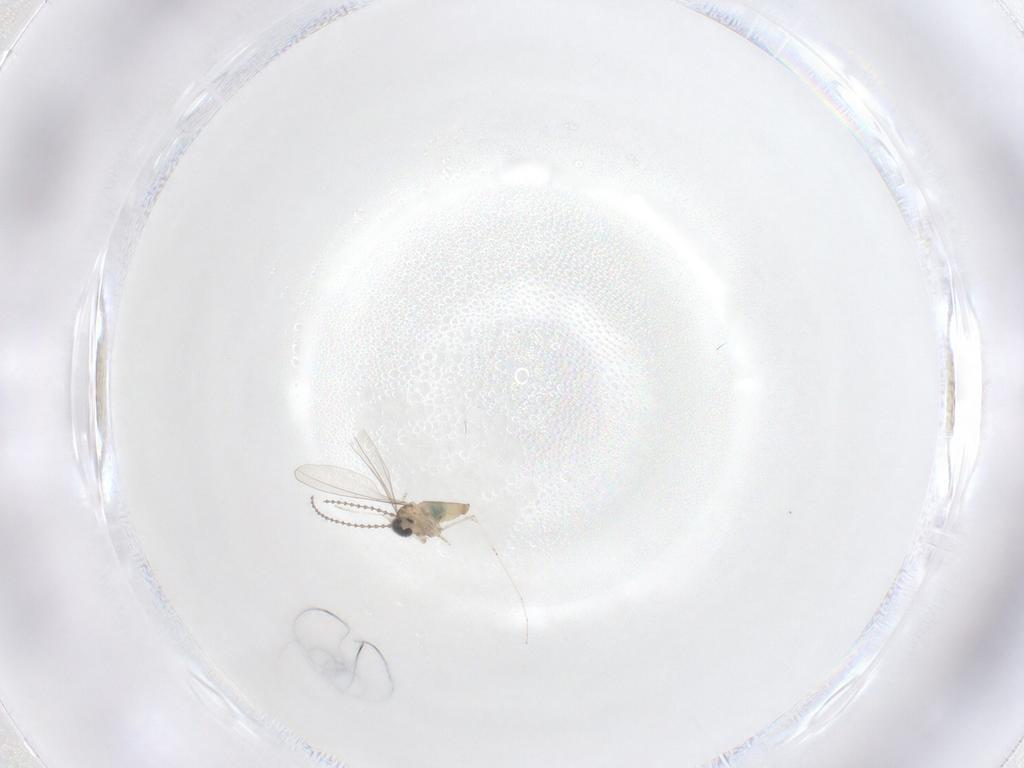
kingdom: Animalia
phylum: Arthropoda
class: Insecta
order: Diptera
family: Cecidomyiidae
